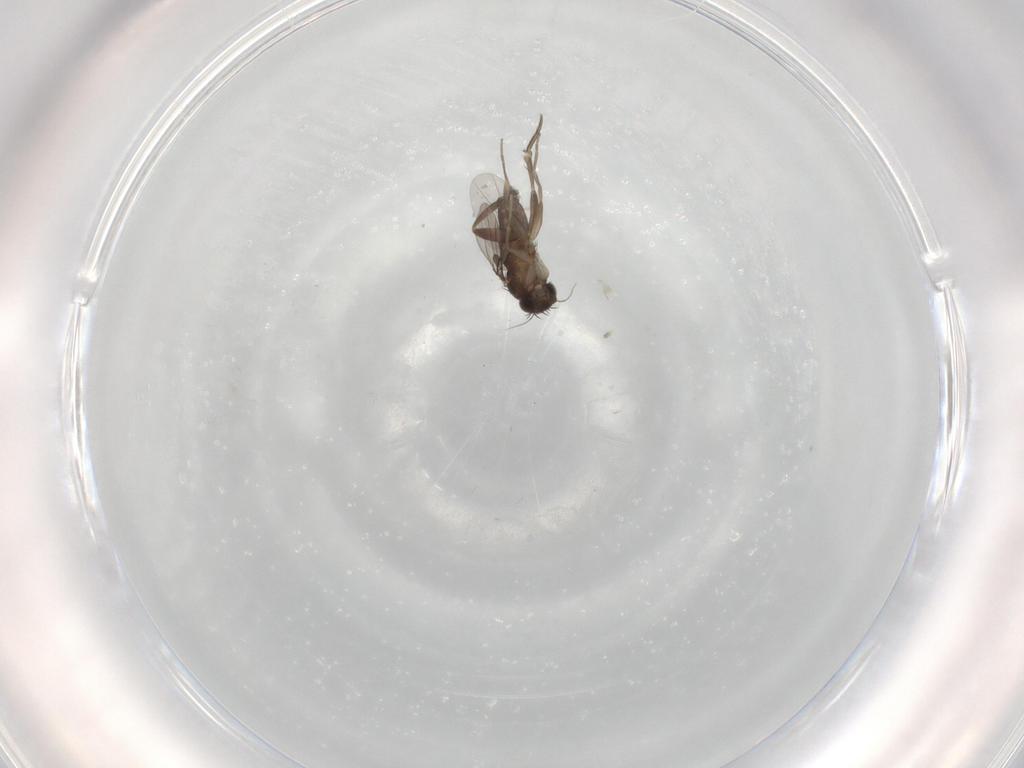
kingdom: Animalia
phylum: Arthropoda
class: Insecta
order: Diptera
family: Phoridae
